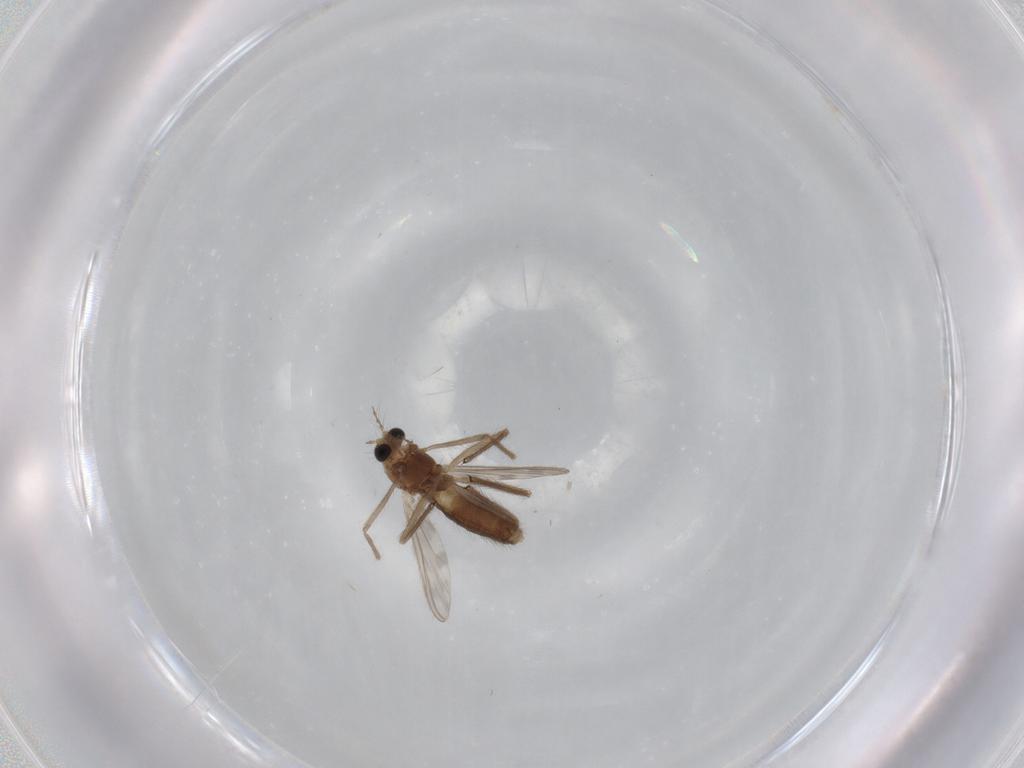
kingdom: Animalia
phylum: Arthropoda
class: Insecta
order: Diptera
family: Chironomidae
